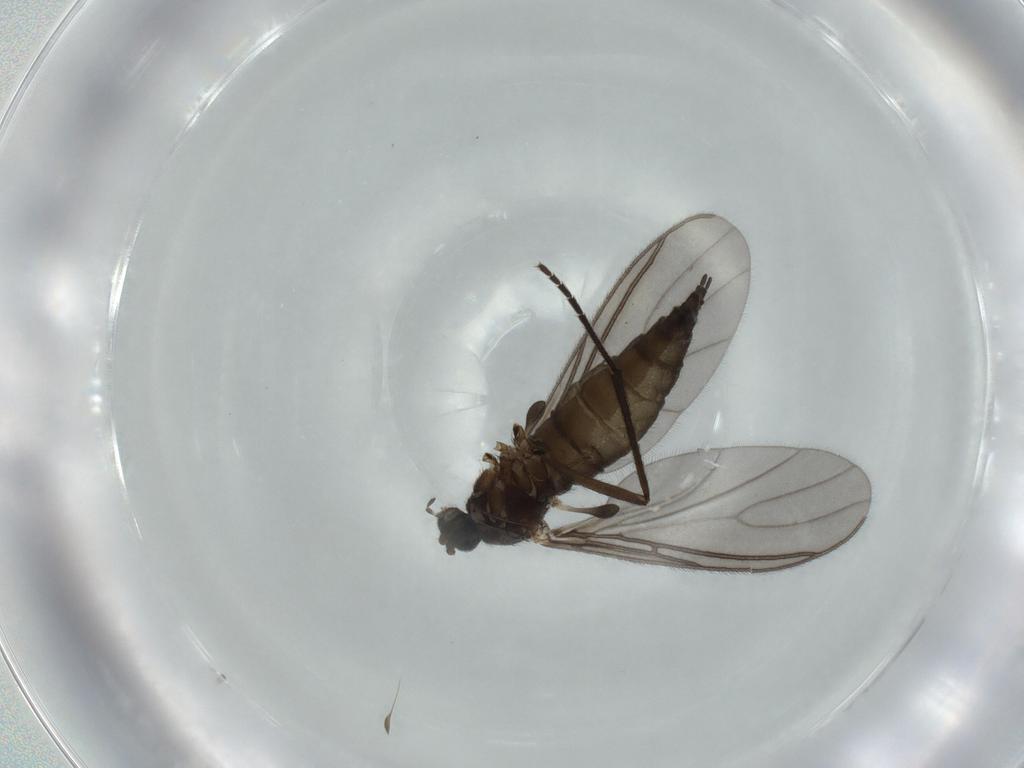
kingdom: Animalia
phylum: Arthropoda
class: Insecta
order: Diptera
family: Sciaridae
